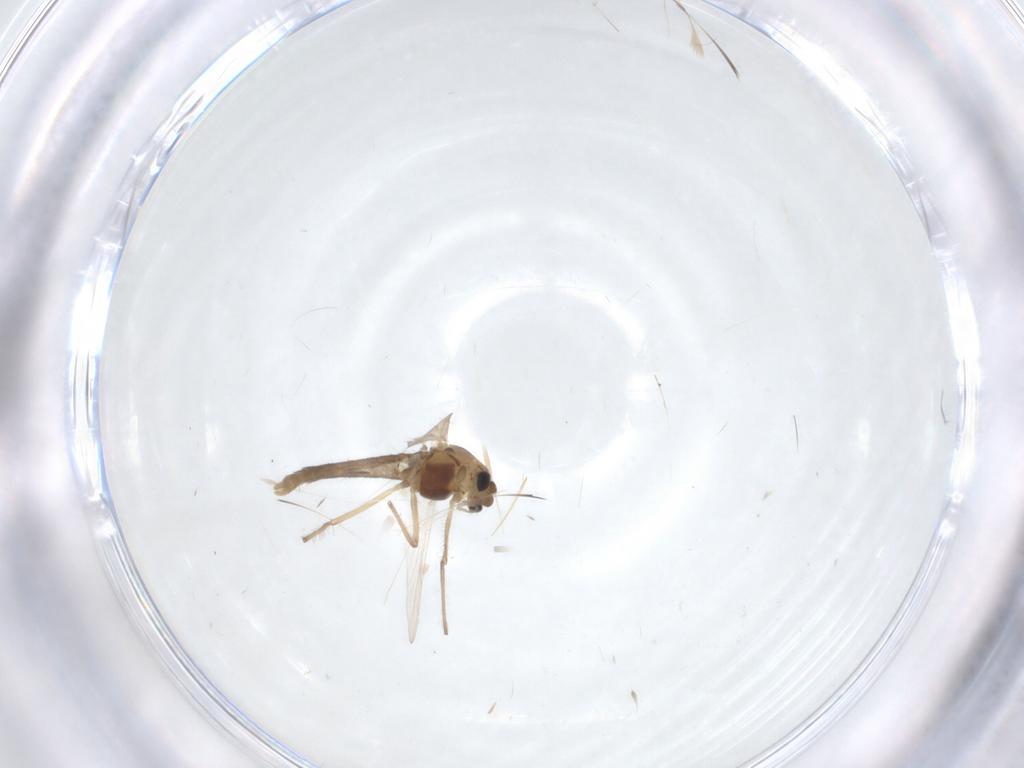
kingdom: Animalia
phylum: Arthropoda
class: Insecta
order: Diptera
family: Chironomidae
